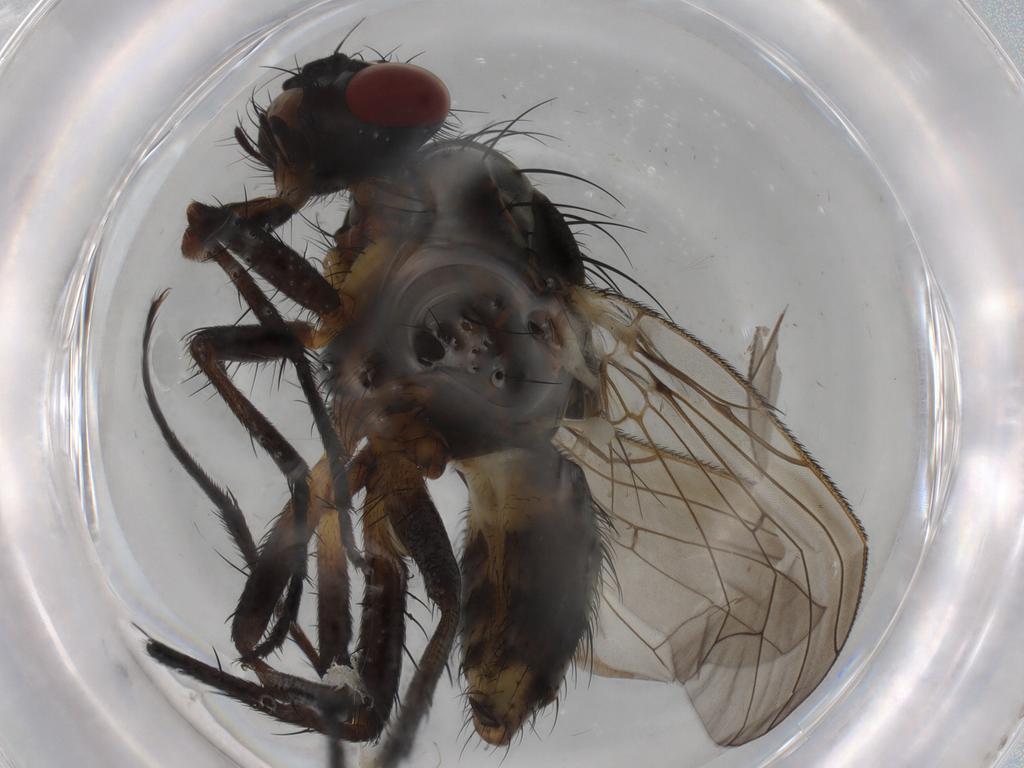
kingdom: Animalia
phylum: Arthropoda
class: Insecta
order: Diptera
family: Anthomyiidae
